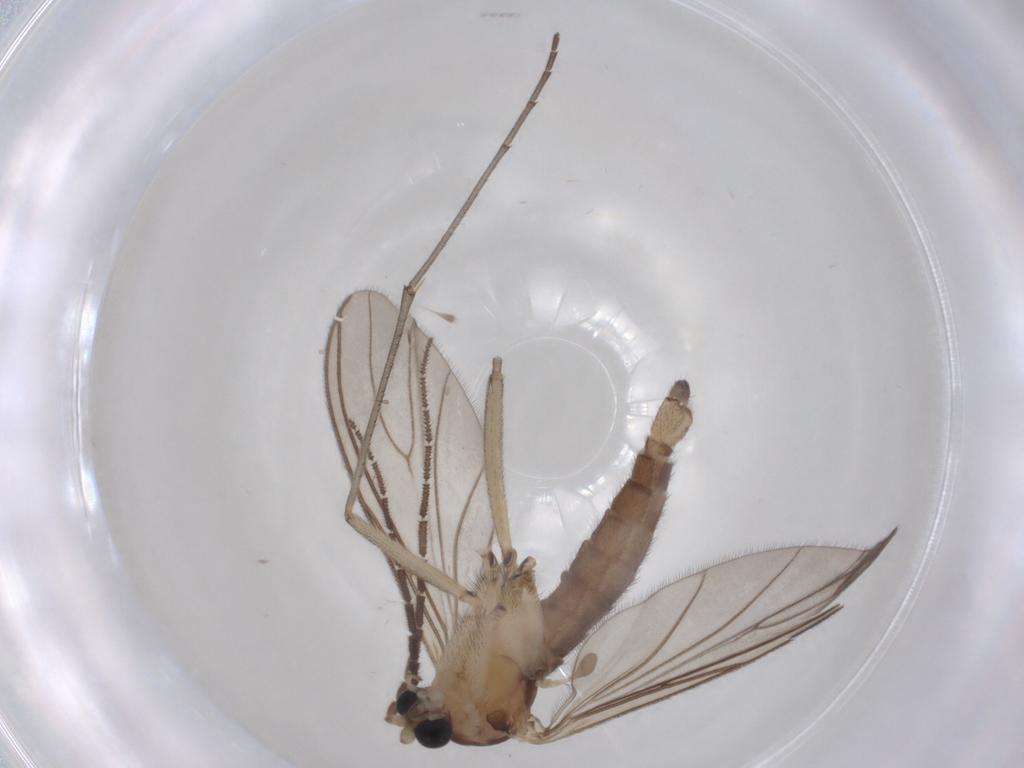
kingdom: Animalia
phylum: Arthropoda
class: Insecta
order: Diptera
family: Sciaridae
